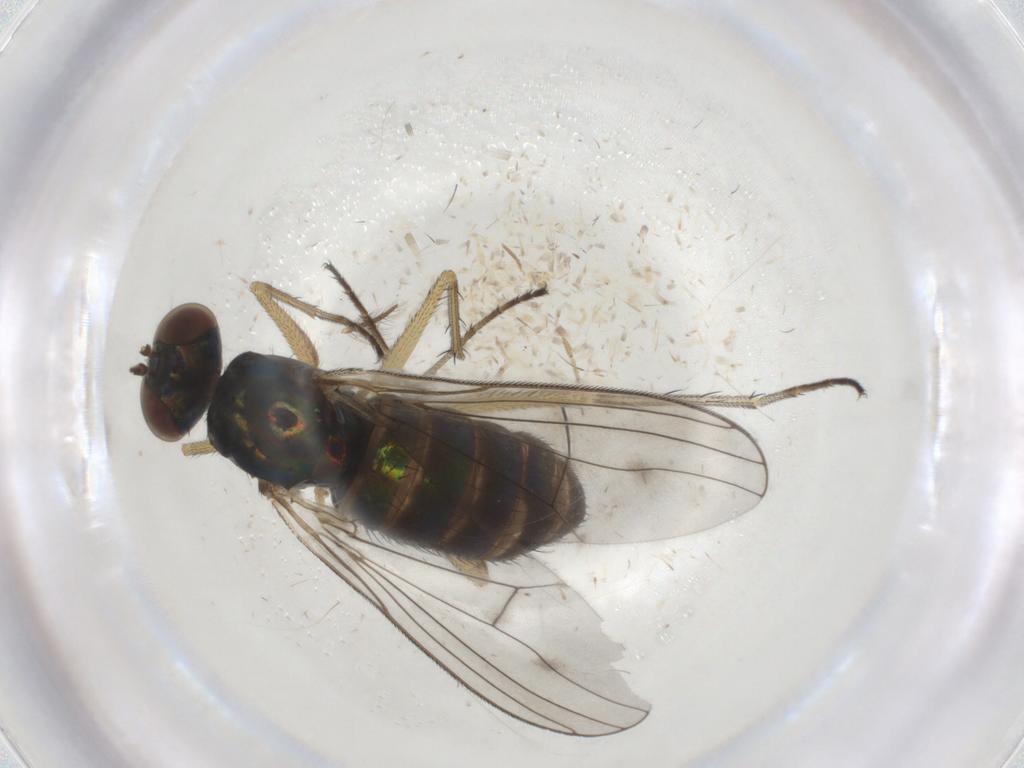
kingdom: Animalia
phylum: Arthropoda
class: Insecta
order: Diptera
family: Dolichopodidae
